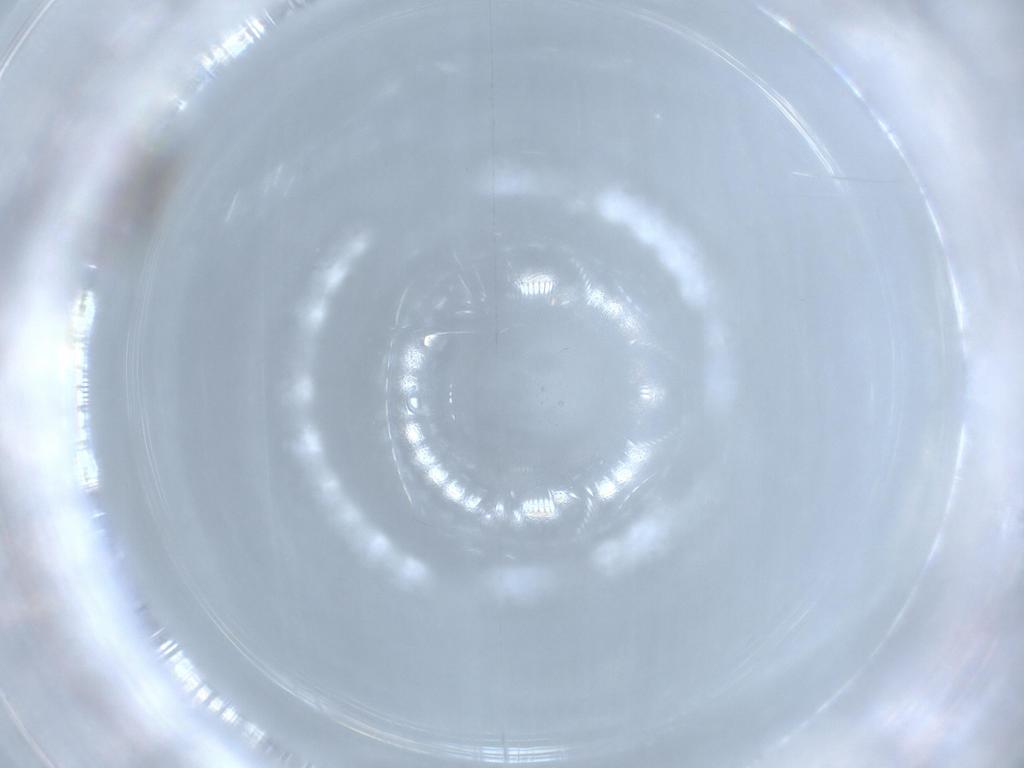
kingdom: Animalia
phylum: Arthropoda
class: Insecta
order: Diptera
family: Chironomidae
